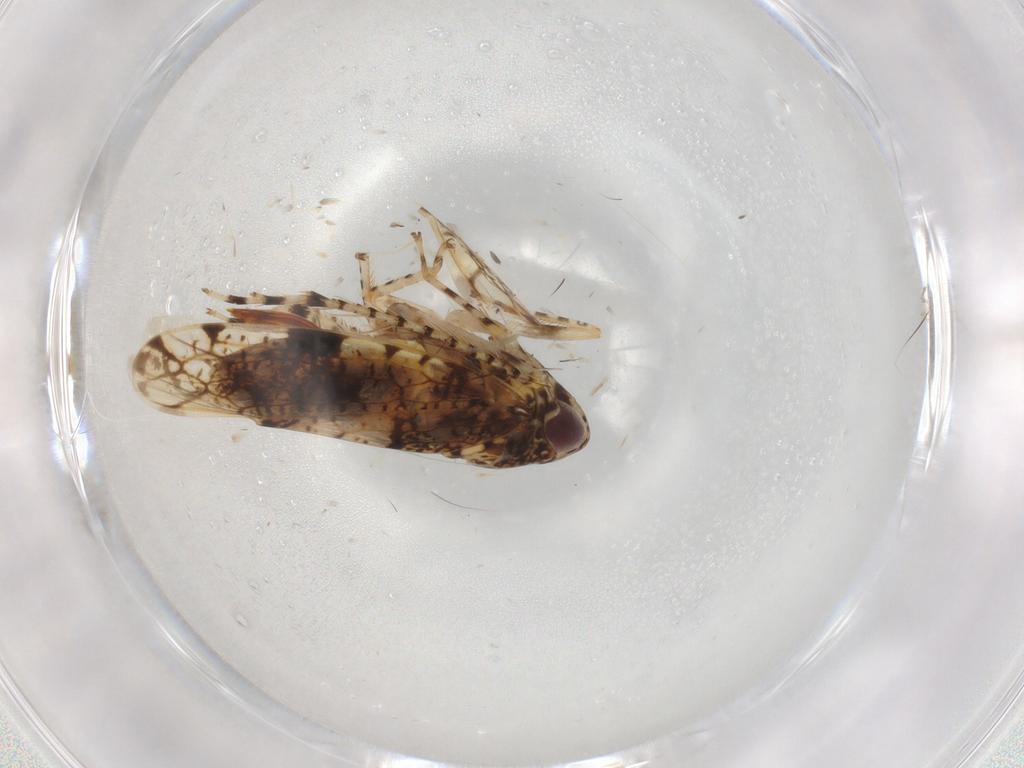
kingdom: Animalia
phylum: Arthropoda
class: Insecta
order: Hemiptera
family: Cicadellidae
